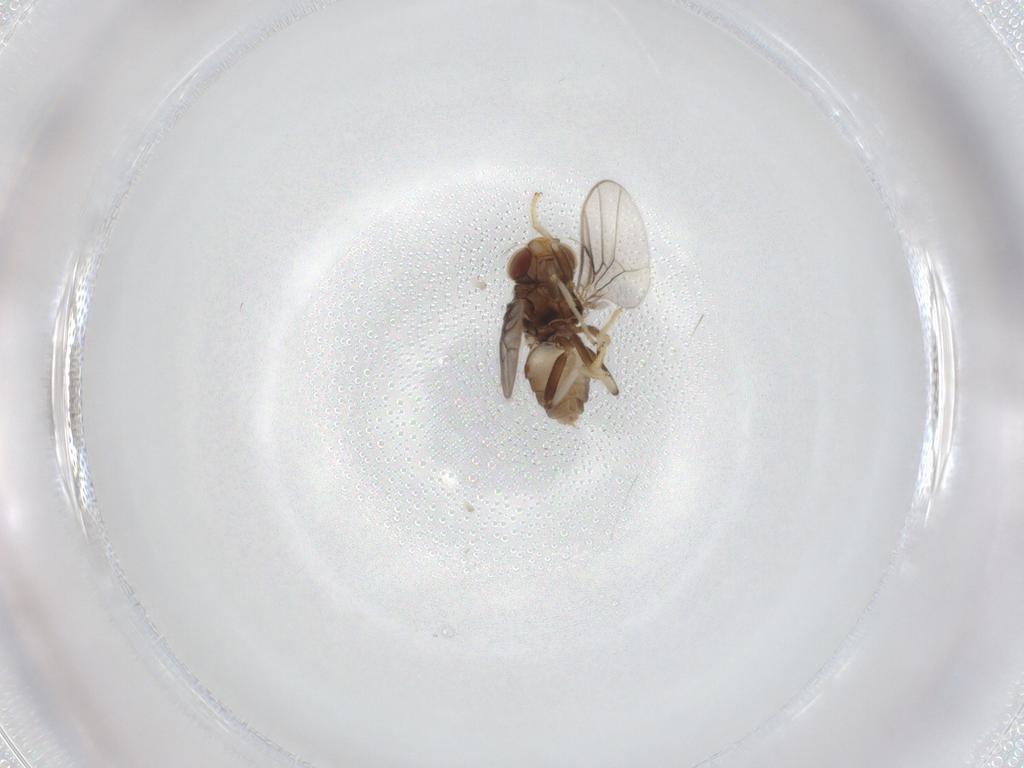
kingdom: Animalia
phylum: Arthropoda
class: Insecta
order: Diptera
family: Chloropidae
